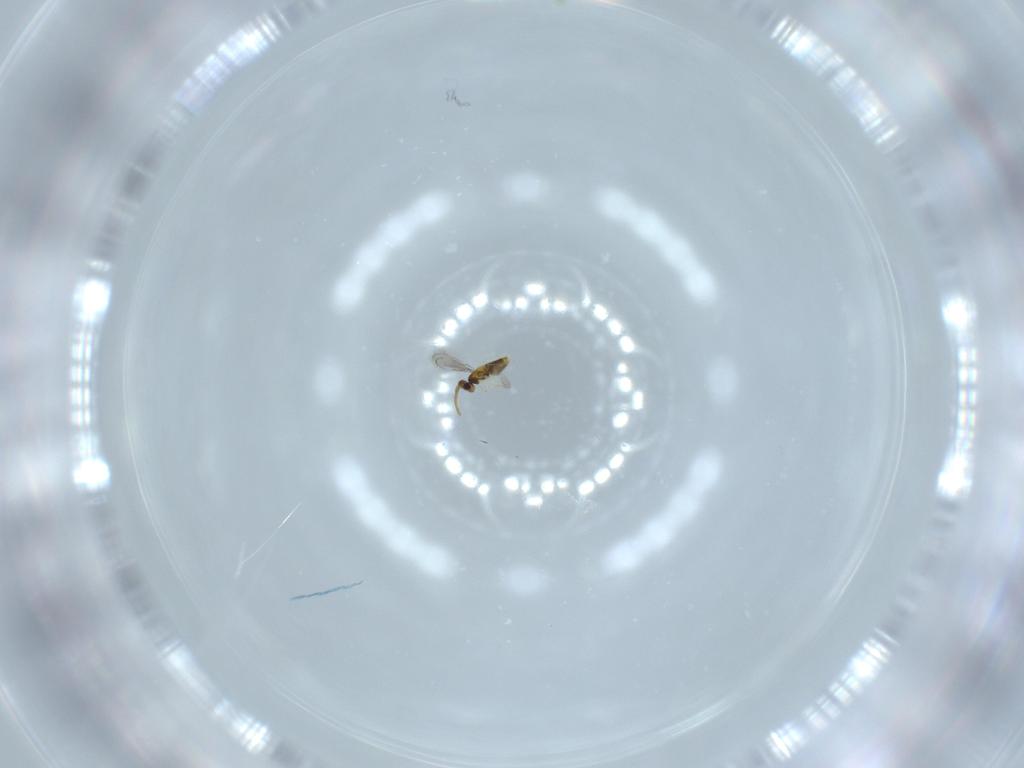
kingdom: Animalia
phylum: Arthropoda
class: Insecta
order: Hymenoptera
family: Aphelinidae
